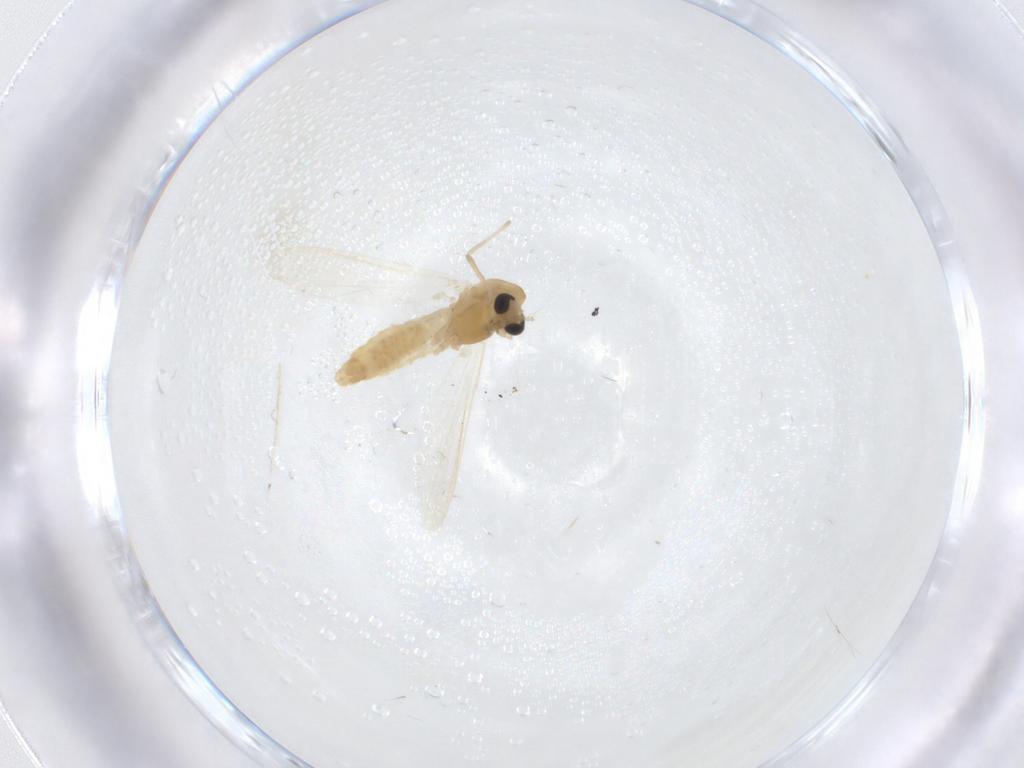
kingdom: Animalia
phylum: Arthropoda
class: Insecta
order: Diptera
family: Chironomidae
